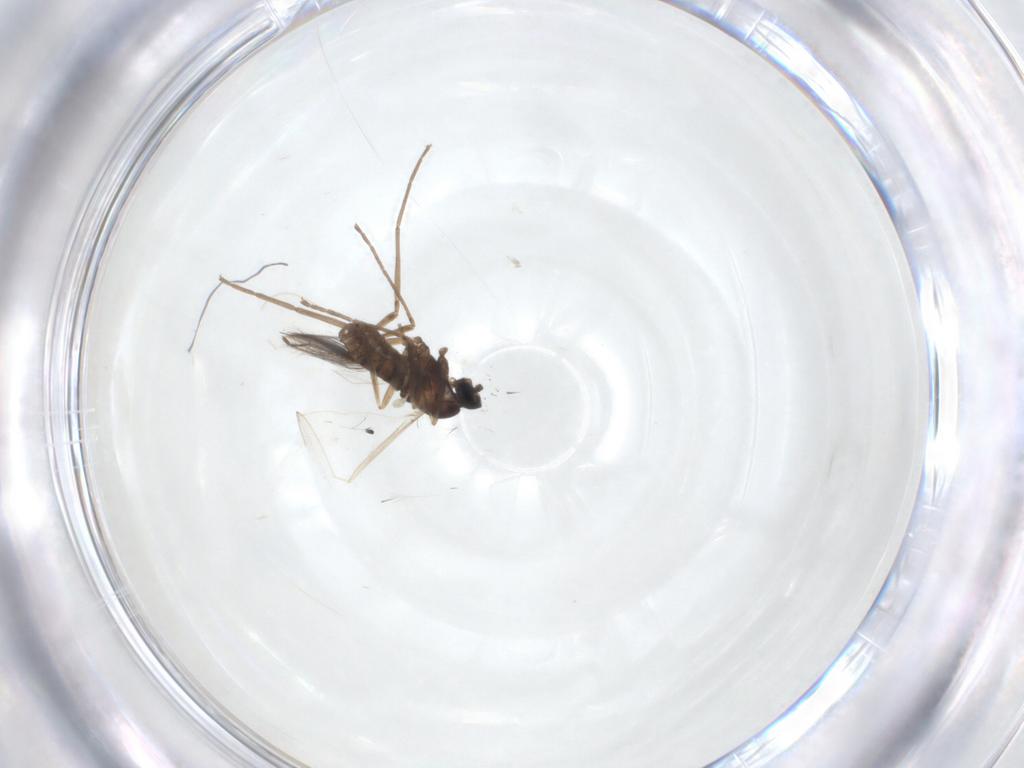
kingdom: Animalia
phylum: Arthropoda
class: Insecta
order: Diptera
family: Cecidomyiidae
